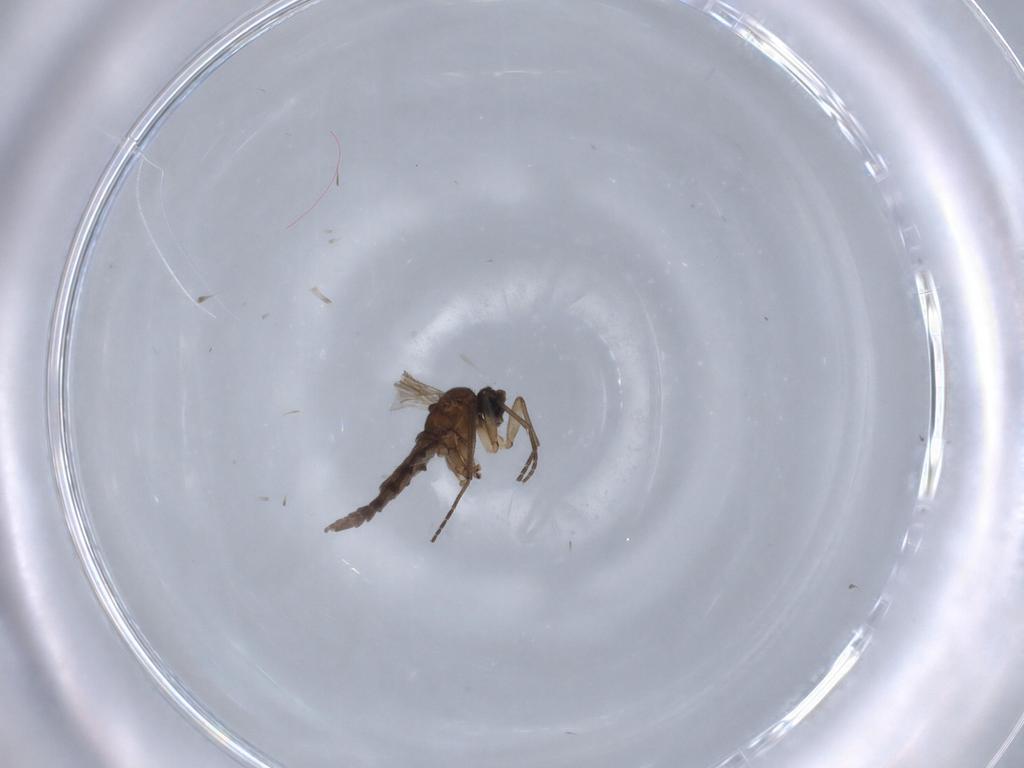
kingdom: Animalia
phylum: Arthropoda
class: Insecta
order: Diptera
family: Sciaridae
